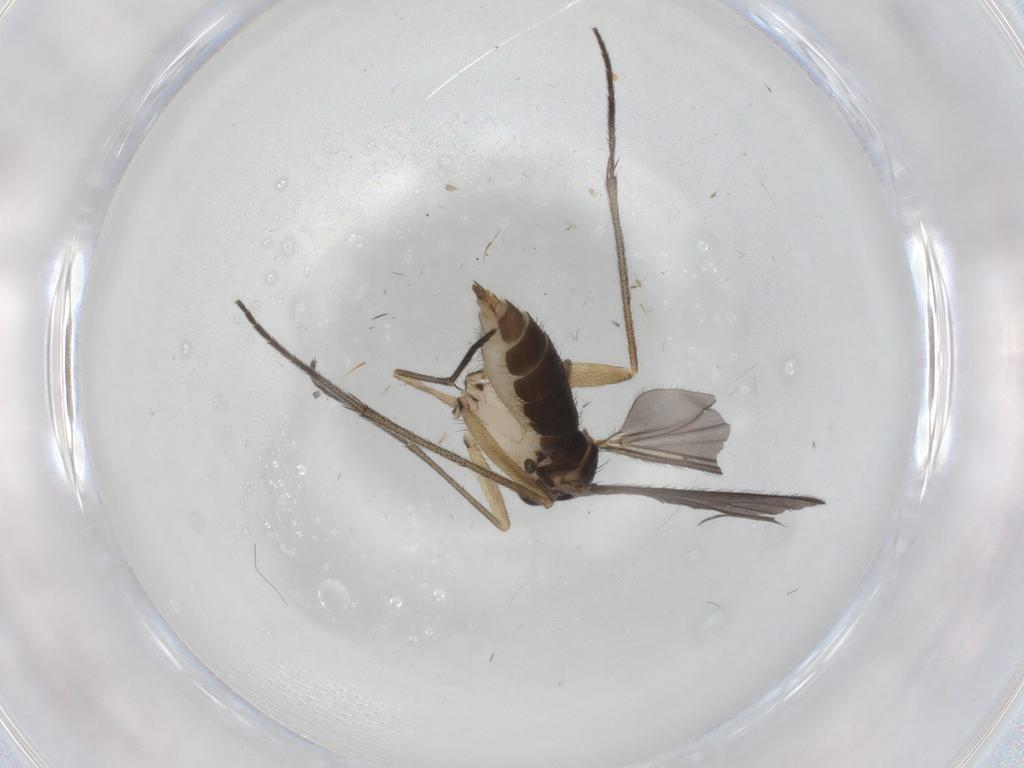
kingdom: Animalia
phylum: Arthropoda
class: Insecta
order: Diptera
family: Sciaridae
